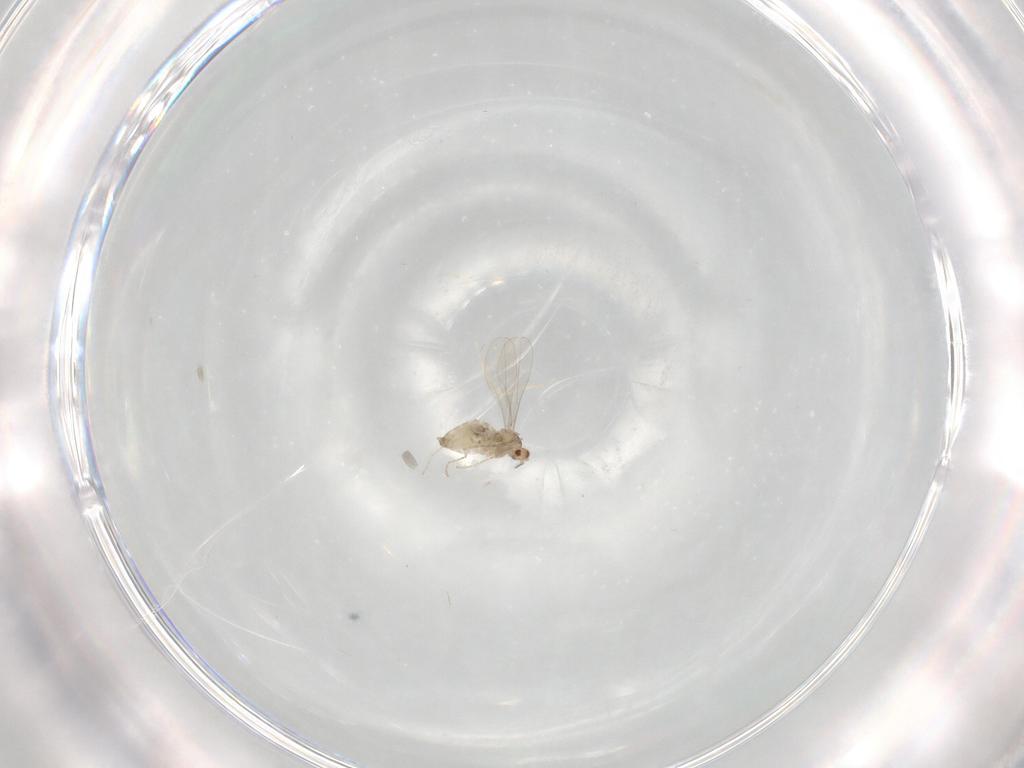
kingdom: Animalia
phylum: Arthropoda
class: Insecta
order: Diptera
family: Cecidomyiidae
